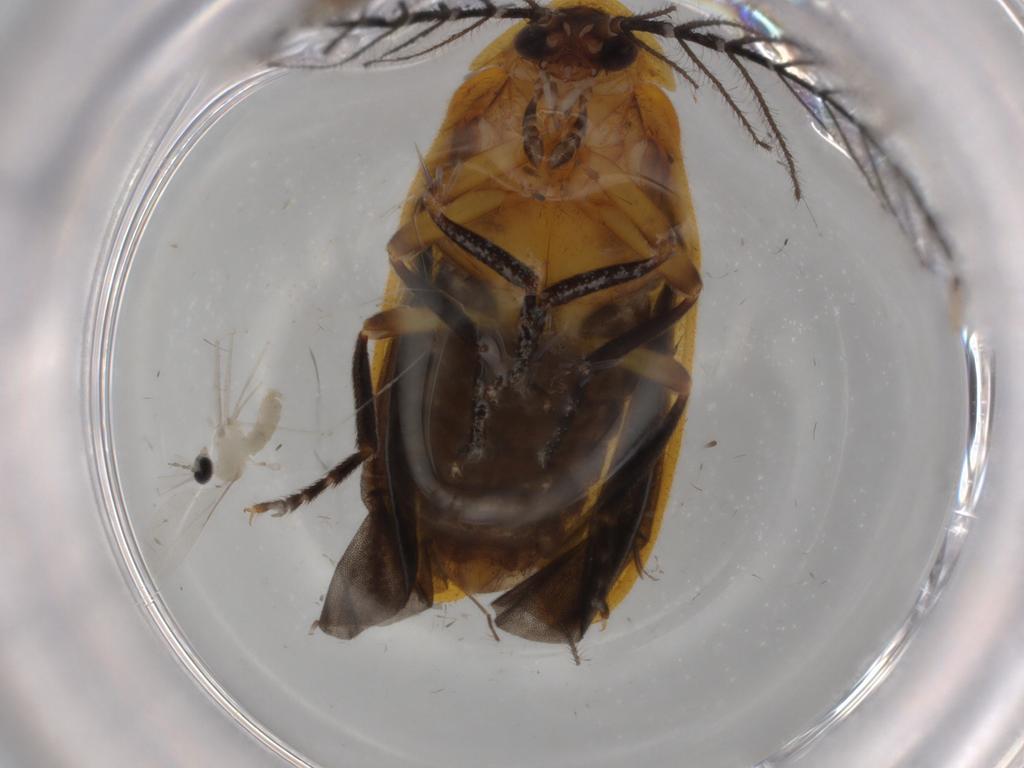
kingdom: Animalia
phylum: Arthropoda
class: Insecta
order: Diptera
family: Cecidomyiidae
